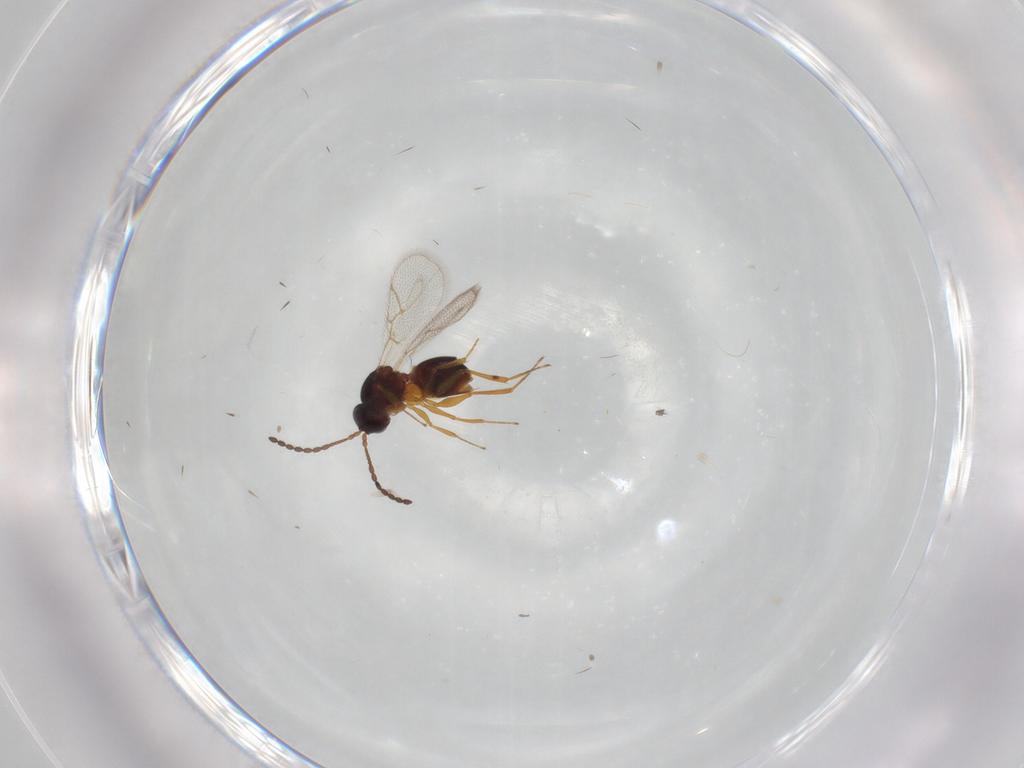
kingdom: Animalia
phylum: Arthropoda
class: Insecta
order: Hymenoptera
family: Figitidae
